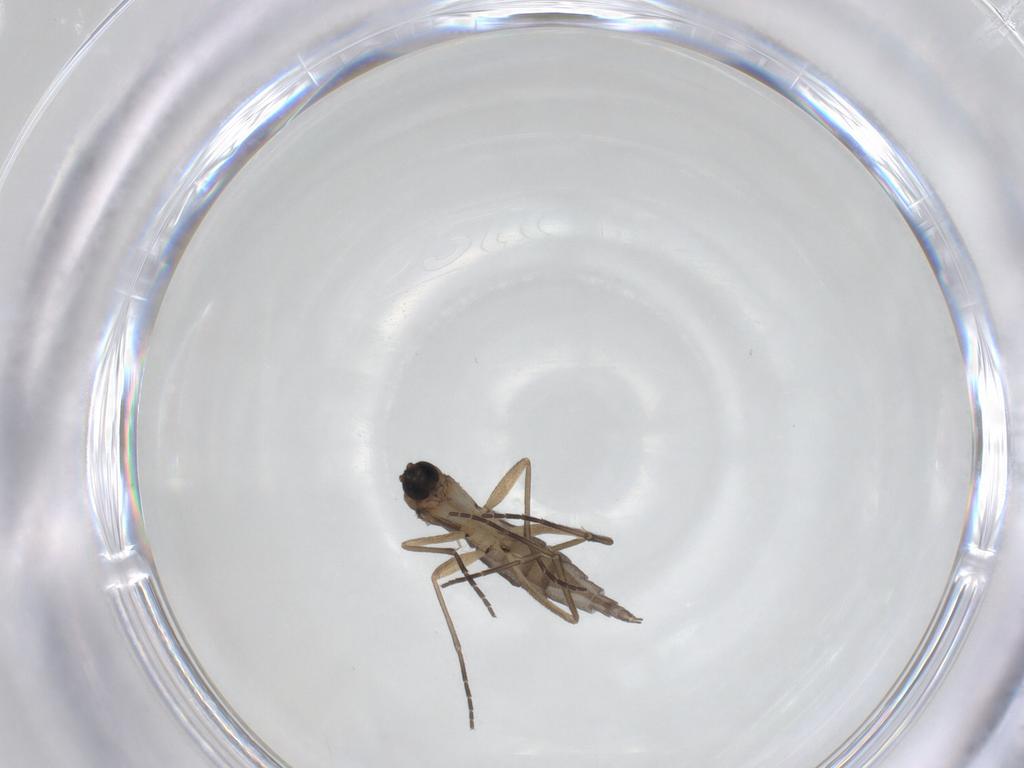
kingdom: Animalia
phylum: Arthropoda
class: Insecta
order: Diptera
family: Sciaridae
